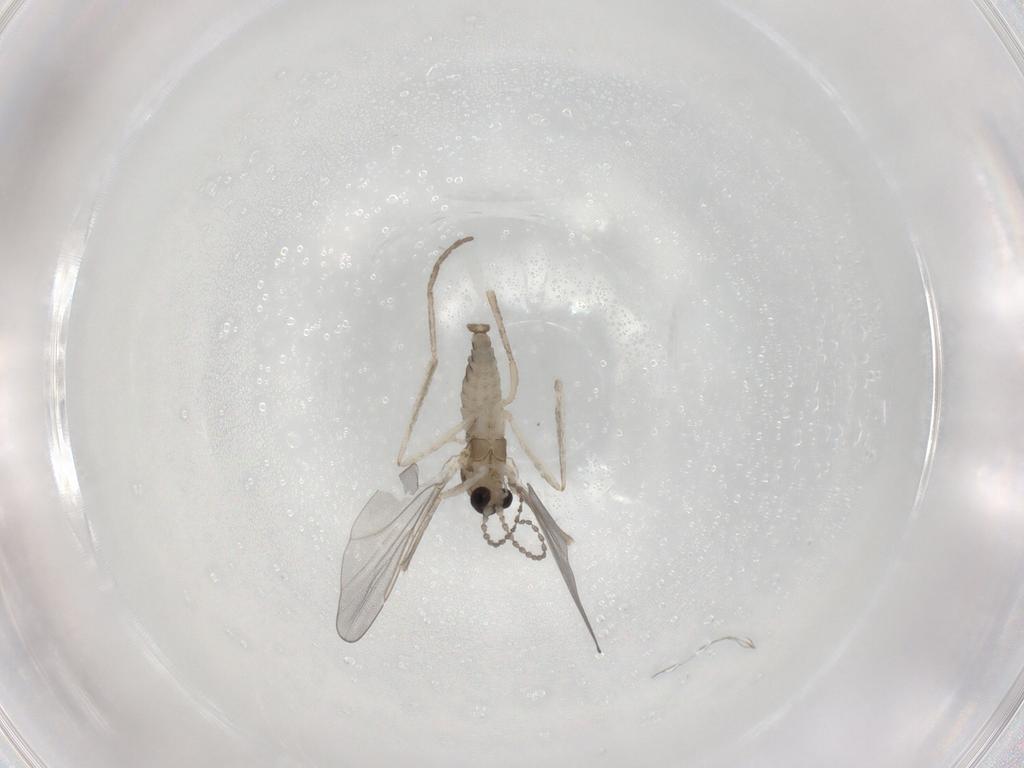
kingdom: Animalia
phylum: Arthropoda
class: Insecta
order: Diptera
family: Cecidomyiidae
